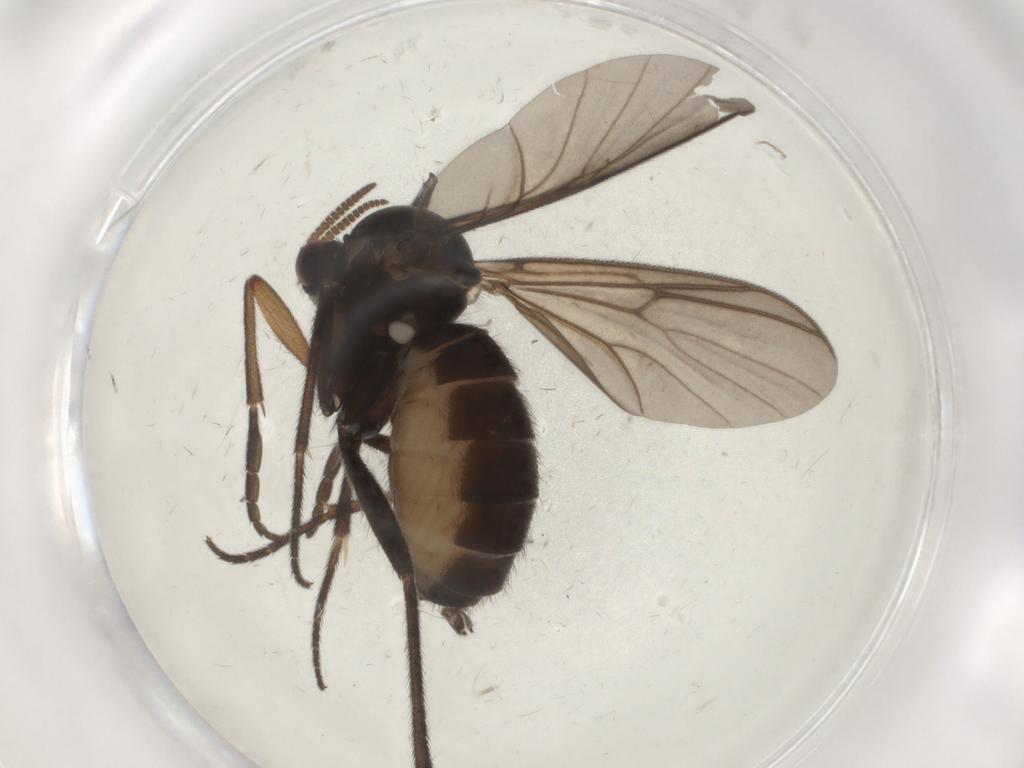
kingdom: Animalia
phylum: Arthropoda
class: Insecta
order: Diptera
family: Mycetophilidae
